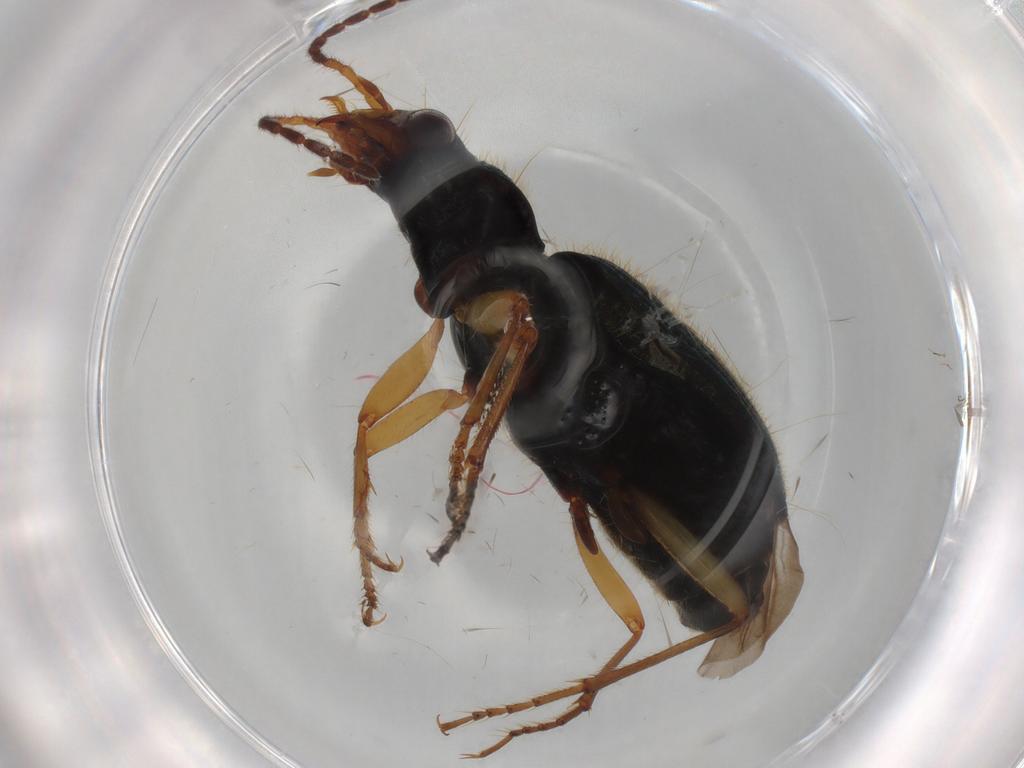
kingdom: Animalia
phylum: Arthropoda
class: Insecta
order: Coleoptera
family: Carabidae
